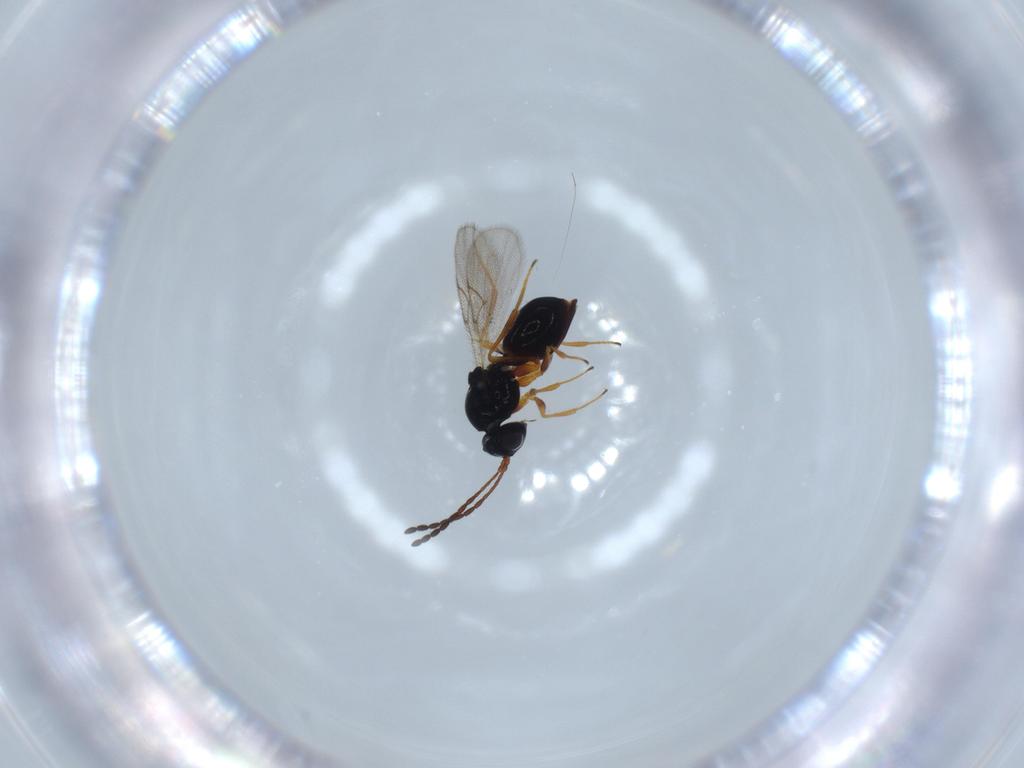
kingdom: Animalia
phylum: Arthropoda
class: Insecta
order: Hymenoptera
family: Figitidae
